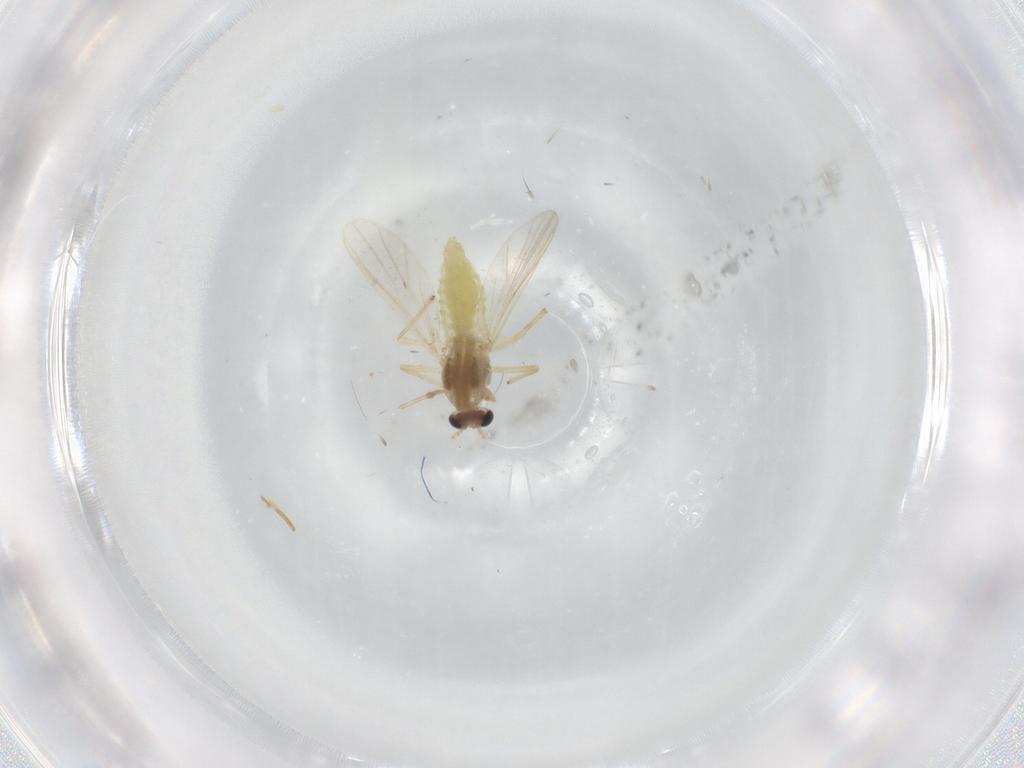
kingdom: Animalia
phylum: Arthropoda
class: Insecta
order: Diptera
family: Chironomidae
